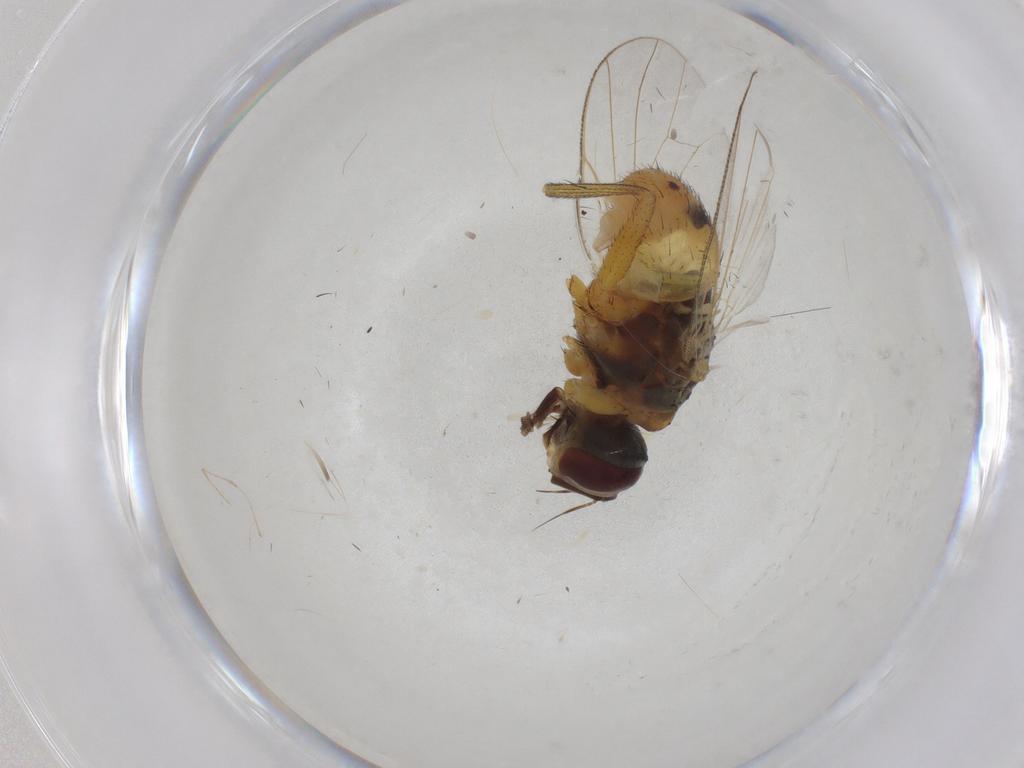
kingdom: Animalia
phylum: Arthropoda
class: Insecta
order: Diptera
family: Muscidae
